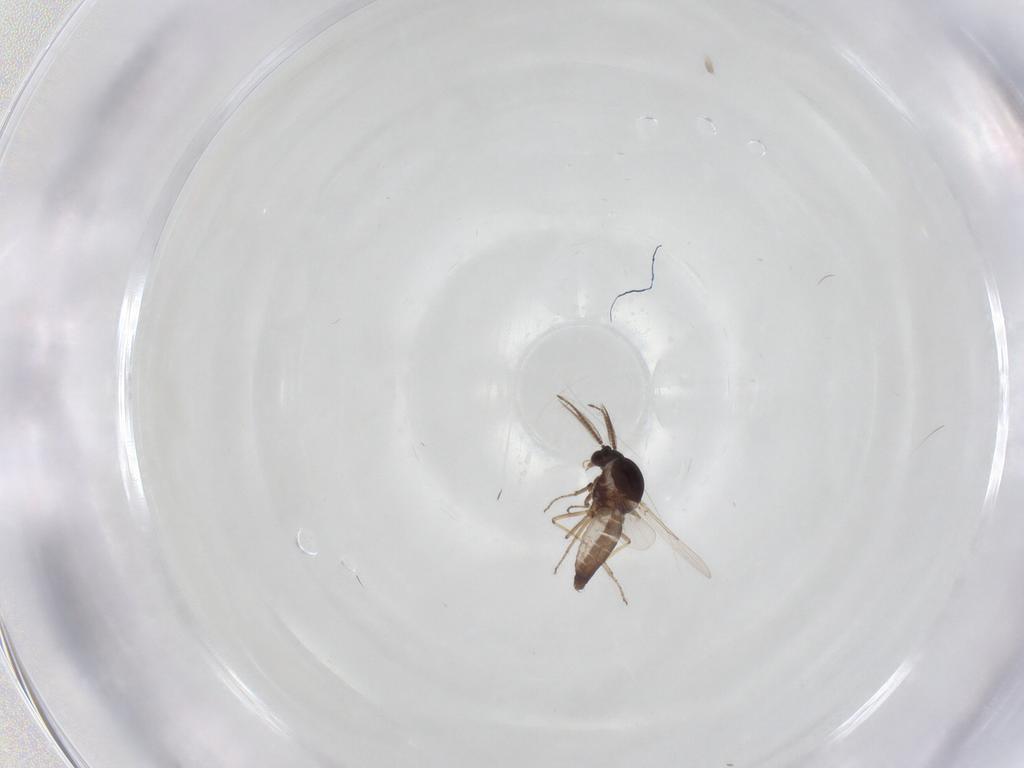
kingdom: Animalia
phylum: Arthropoda
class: Insecta
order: Diptera
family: Ceratopogonidae
